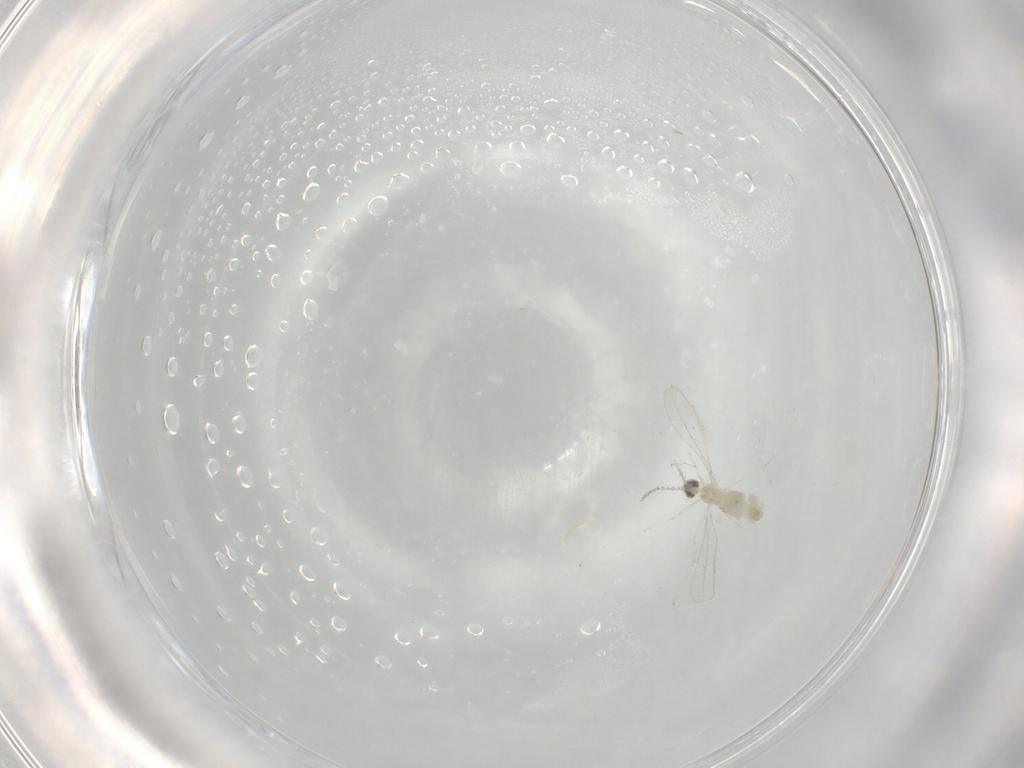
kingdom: Animalia
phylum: Arthropoda
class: Insecta
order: Diptera
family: Cecidomyiidae
